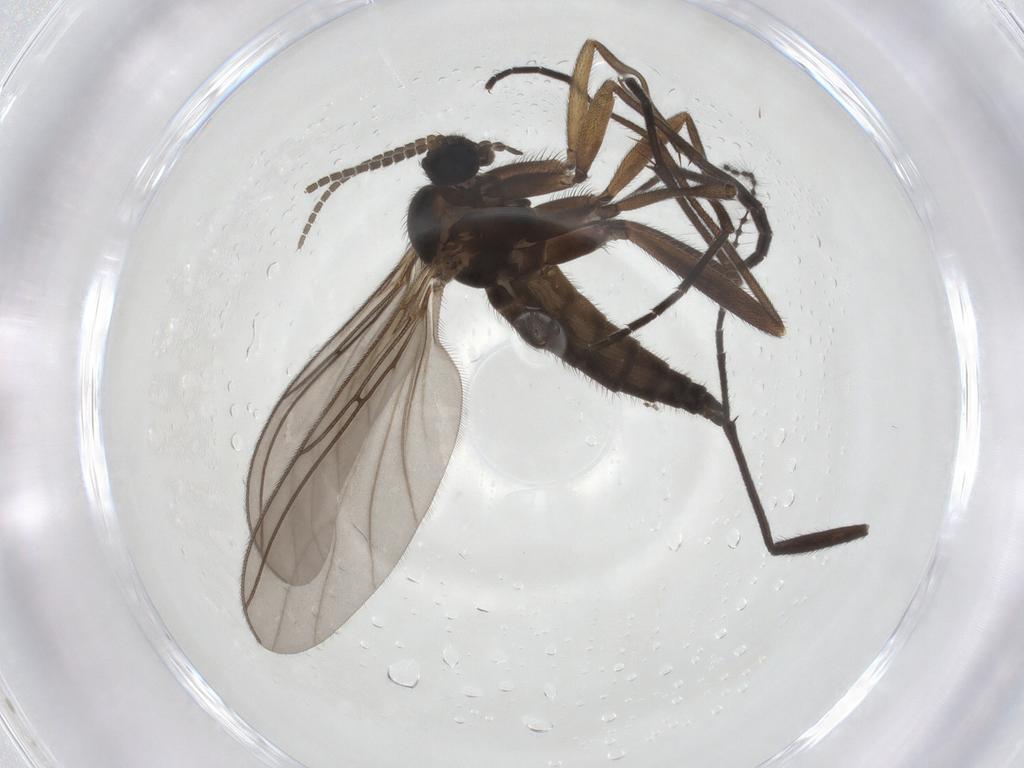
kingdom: Animalia
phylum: Arthropoda
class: Insecta
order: Diptera
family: Sciaridae
